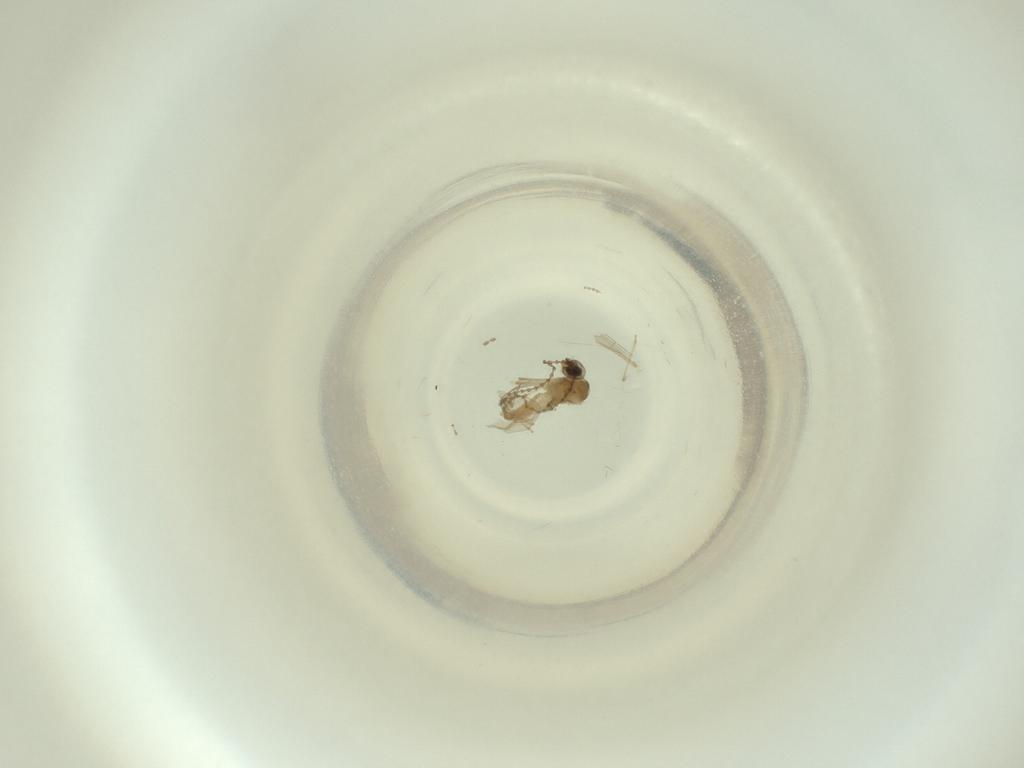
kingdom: Animalia
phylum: Arthropoda
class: Insecta
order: Diptera
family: Cecidomyiidae
